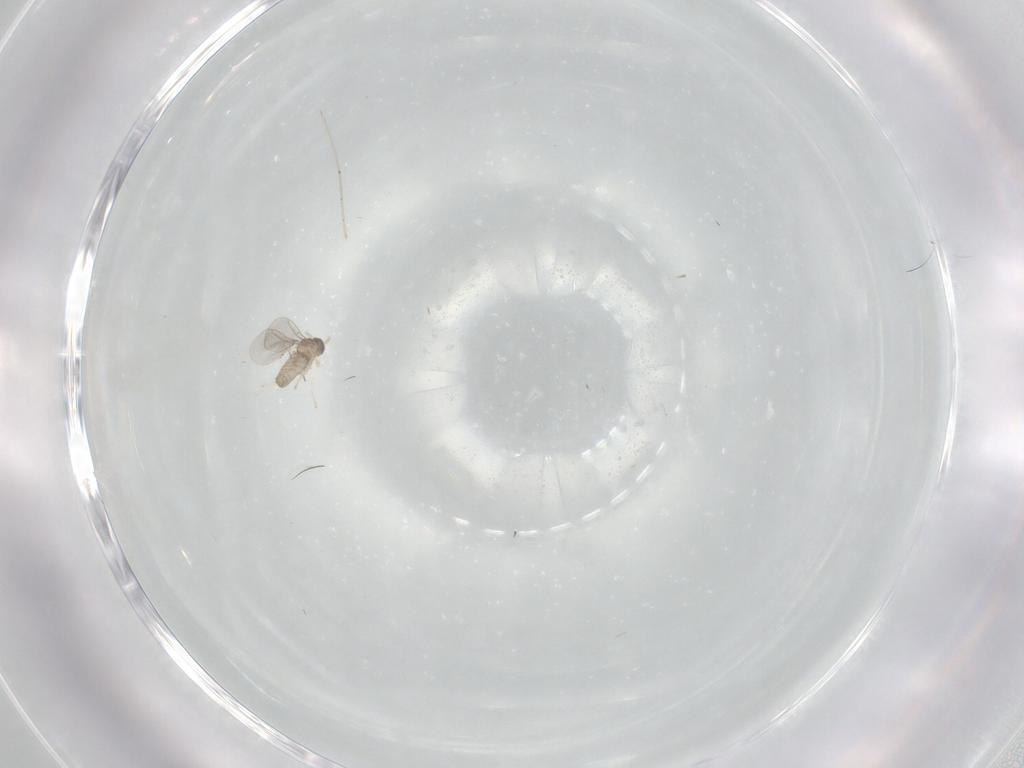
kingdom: Animalia
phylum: Arthropoda
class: Insecta
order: Diptera
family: Cecidomyiidae
